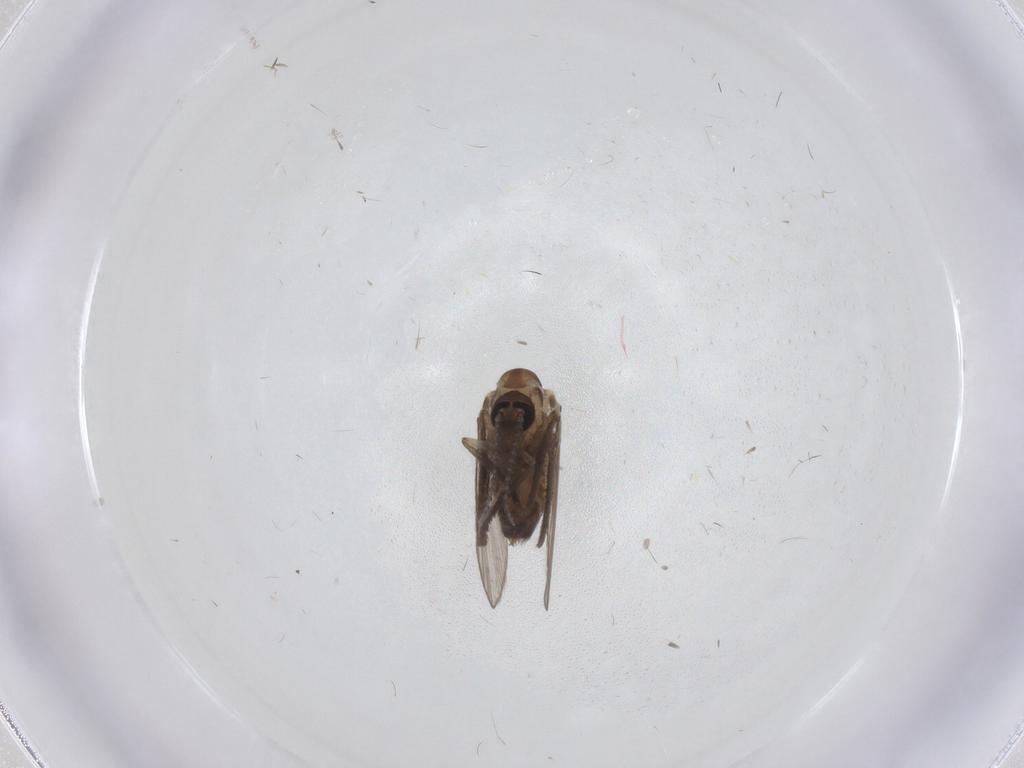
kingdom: Animalia
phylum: Arthropoda
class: Insecta
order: Diptera
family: Psychodidae
